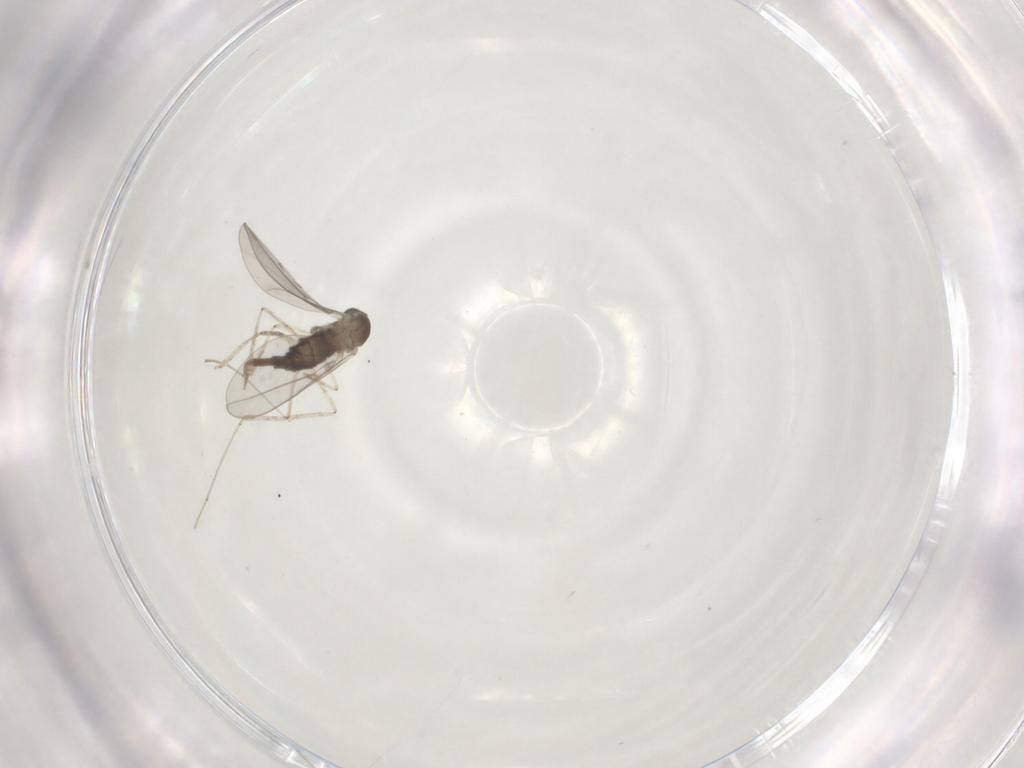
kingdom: Animalia
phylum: Arthropoda
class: Insecta
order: Diptera
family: Cecidomyiidae
